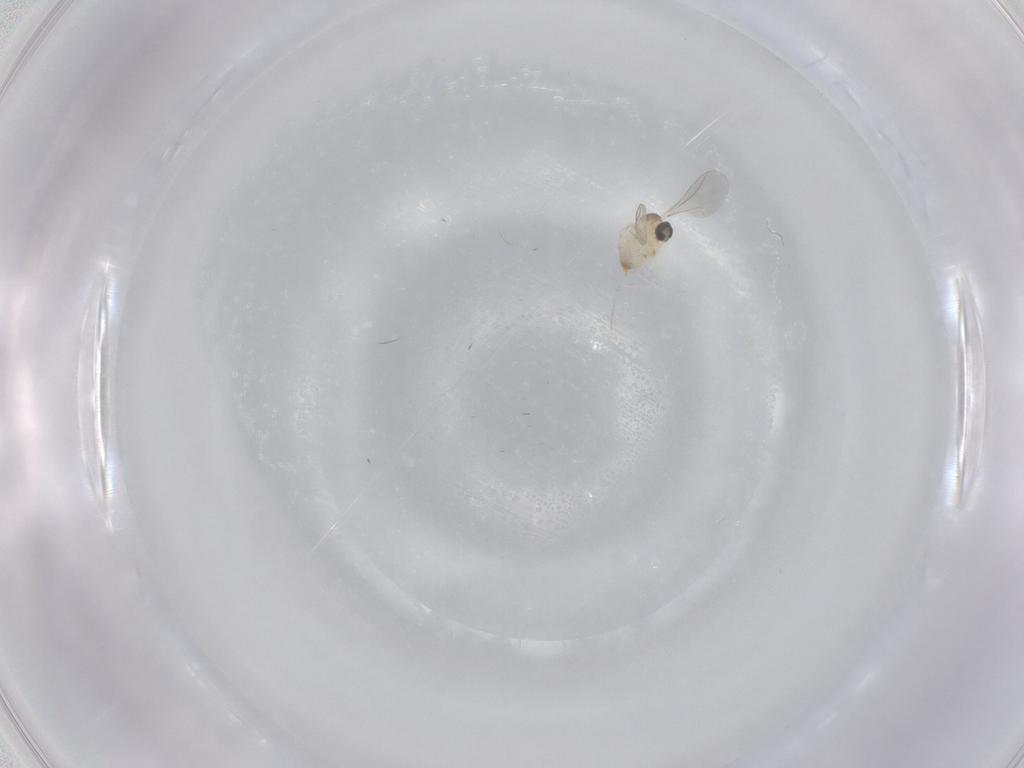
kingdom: Animalia
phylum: Arthropoda
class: Insecta
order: Diptera
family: Cecidomyiidae
